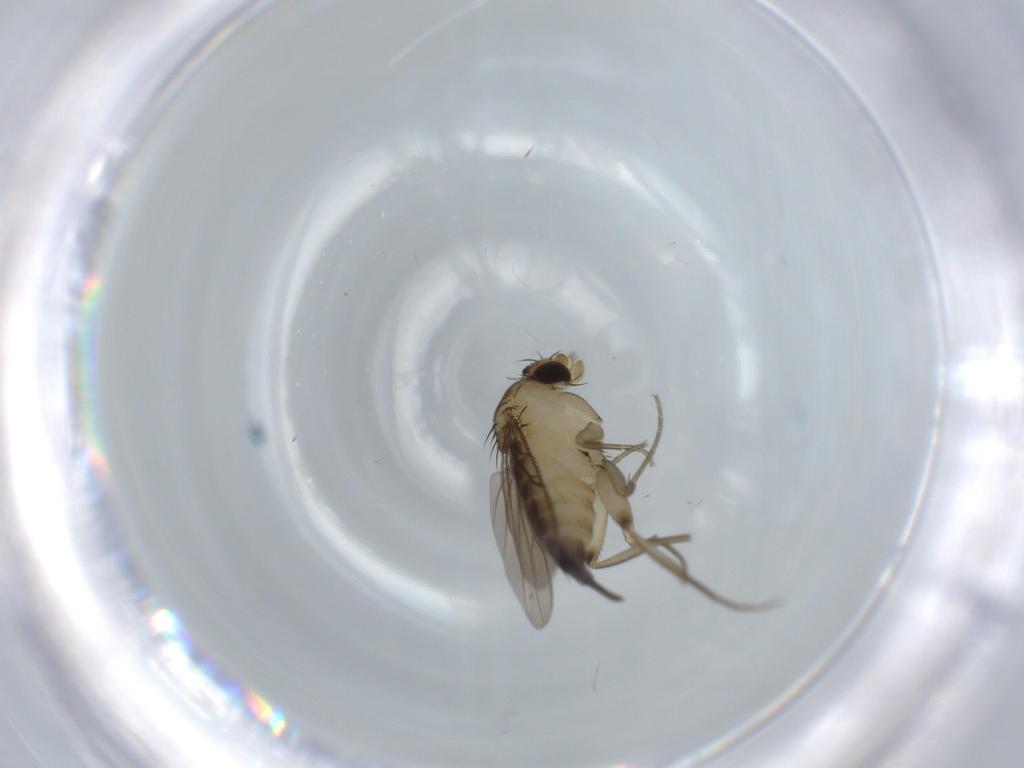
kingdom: Animalia
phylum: Arthropoda
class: Insecta
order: Diptera
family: Phoridae
